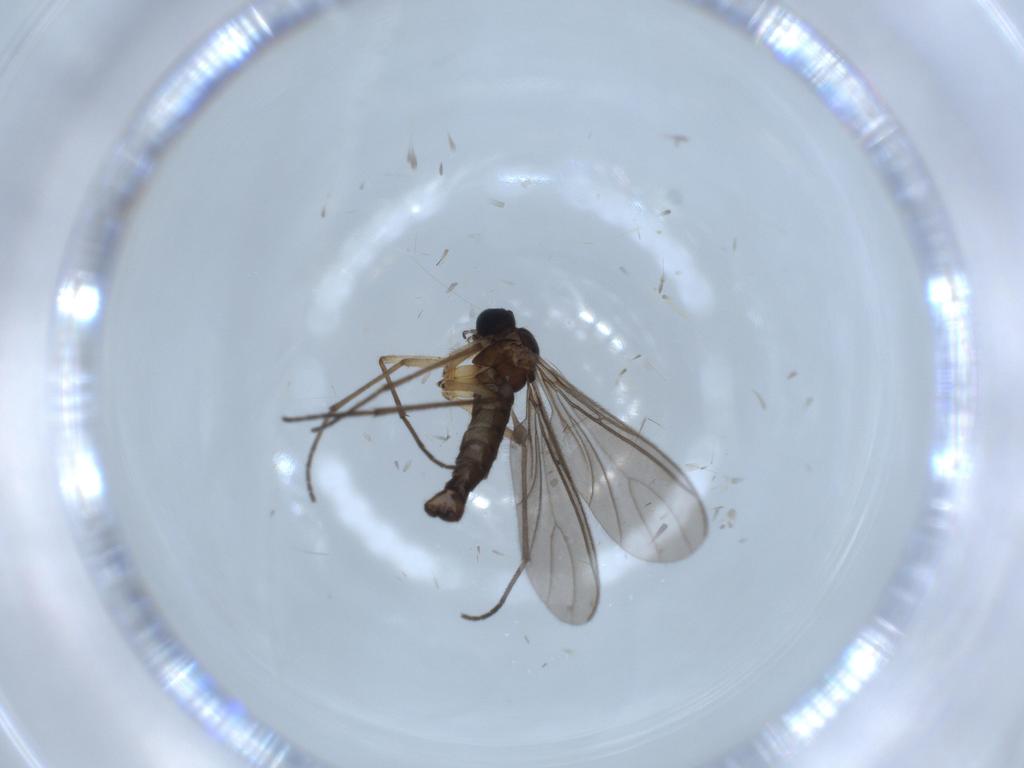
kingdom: Animalia
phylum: Arthropoda
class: Insecta
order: Diptera
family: Sciaridae
